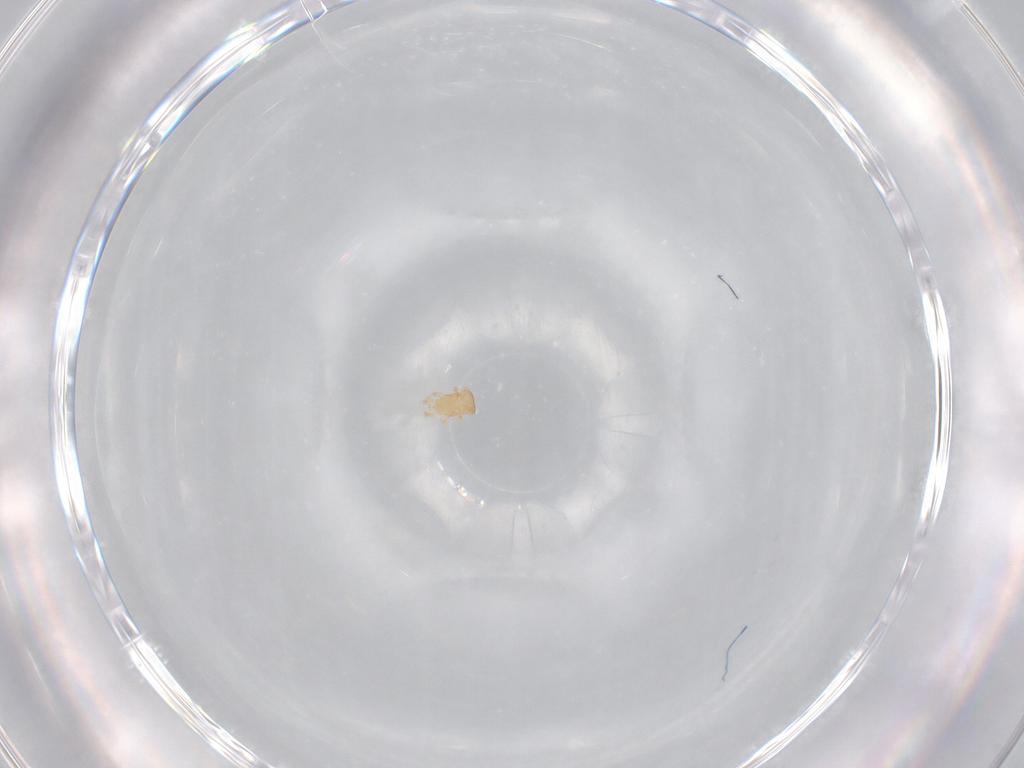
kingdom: Animalia
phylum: Arthropoda
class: Arachnida
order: Mesostigmata
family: Digamasellidae
